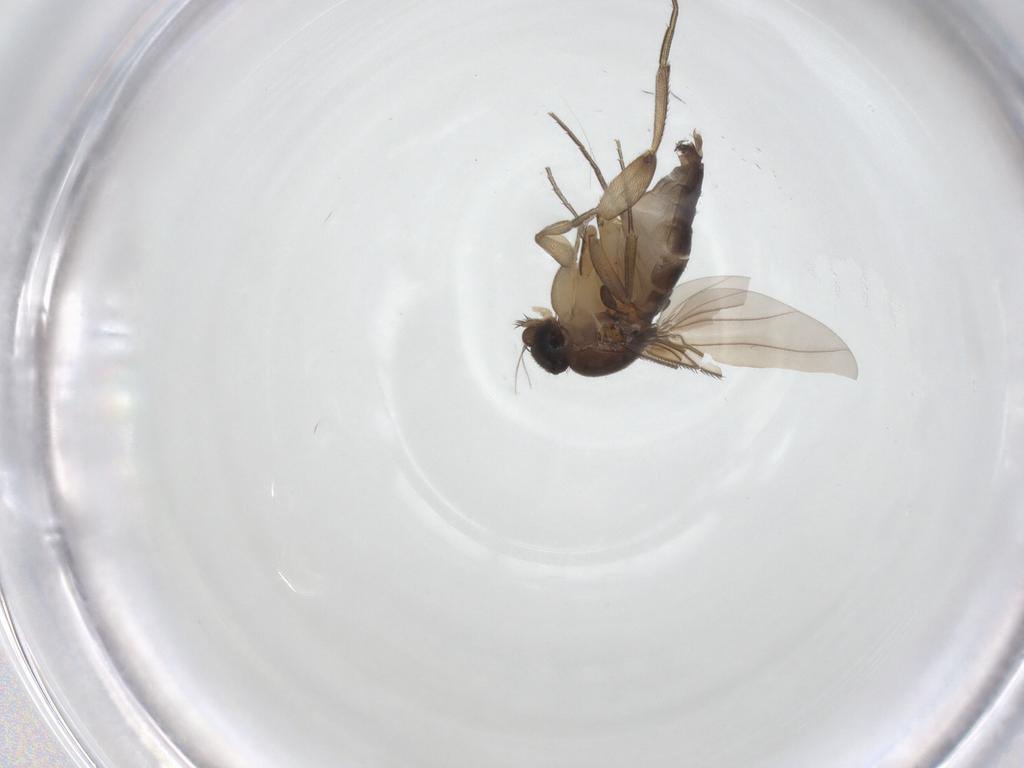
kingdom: Animalia
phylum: Arthropoda
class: Insecta
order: Diptera
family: Phoridae
